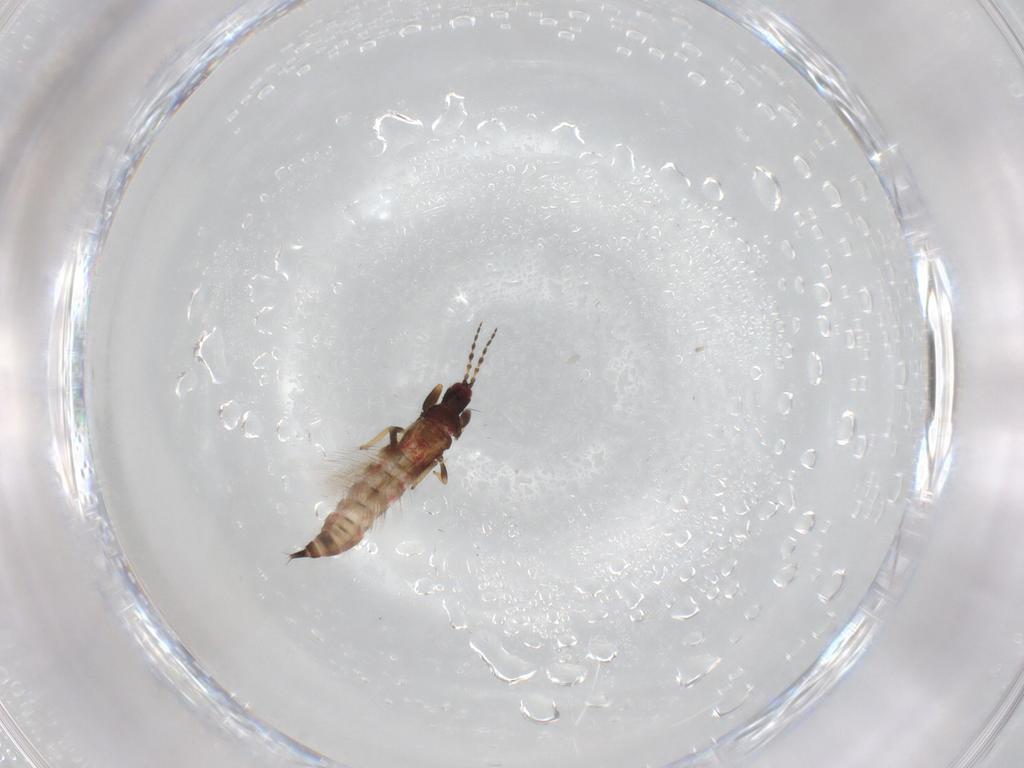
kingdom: Animalia
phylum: Arthropoda
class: Insecta
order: Thysanoptera
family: Phlaeothripidae
